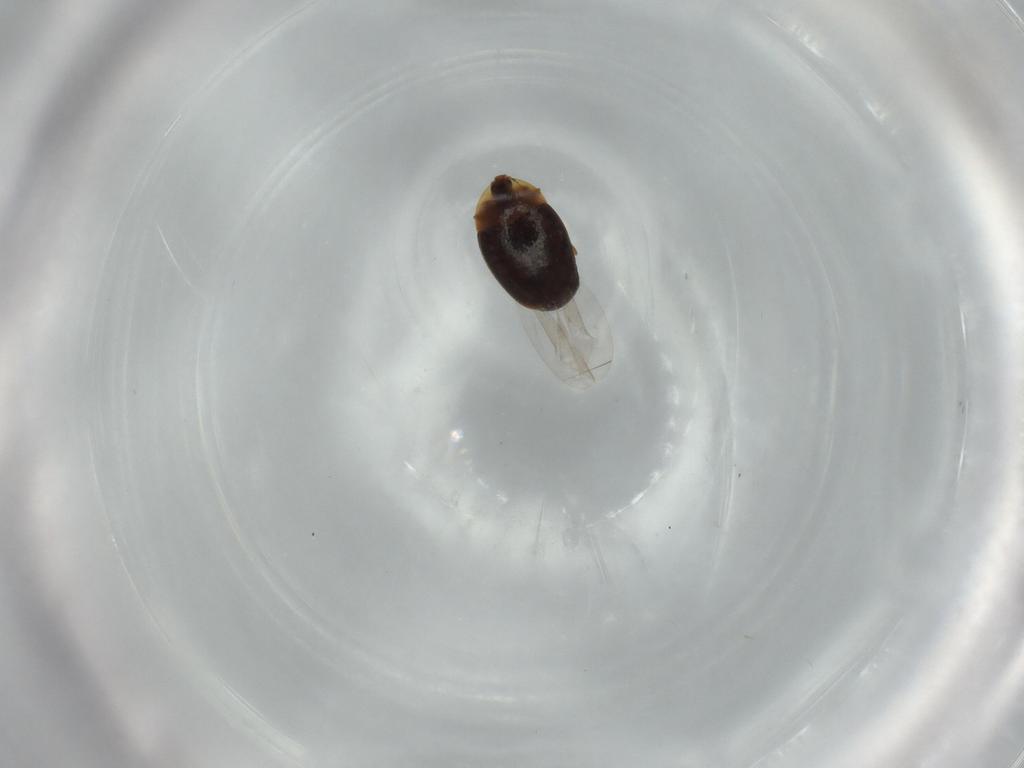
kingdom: Animalia
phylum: Arthropoda
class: Insecta
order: Coleoptera
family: Corylophidae
